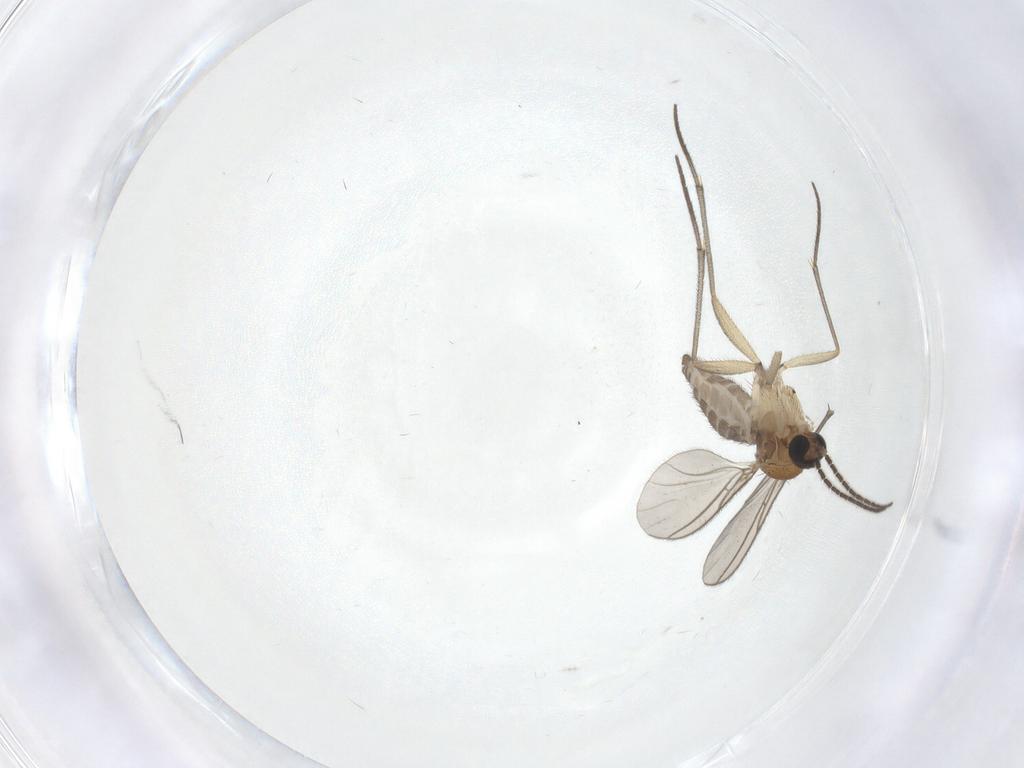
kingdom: Animalia
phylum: Arthropoda
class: Insecta
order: Diptera
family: Sciaridae
